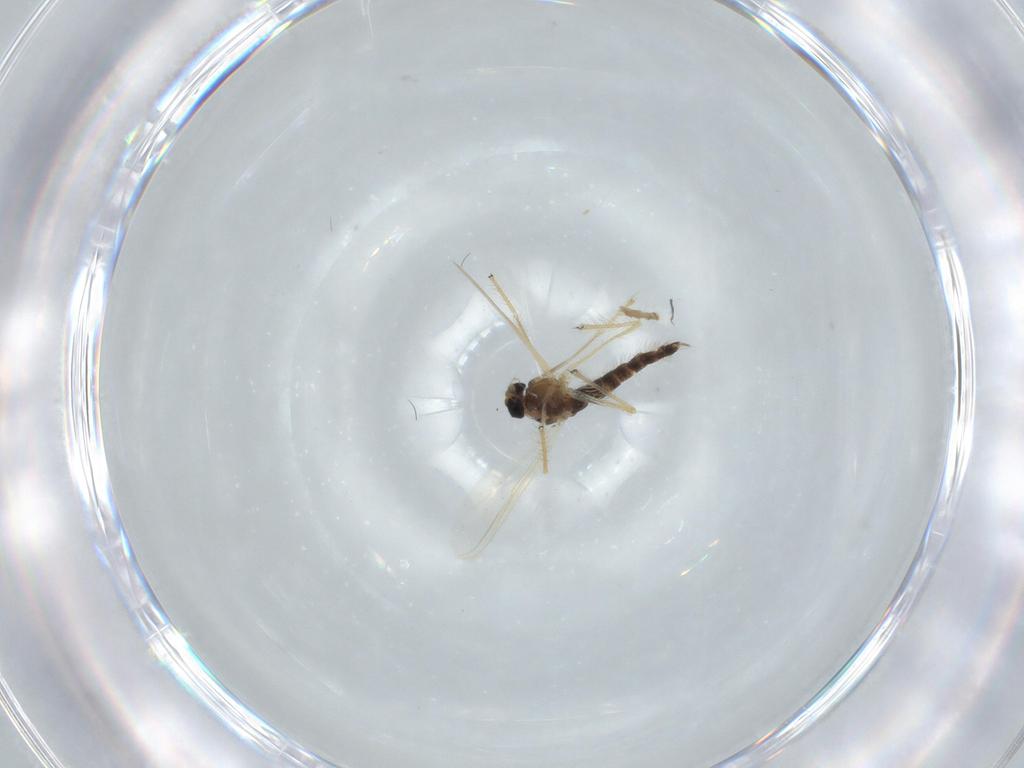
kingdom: Animalia
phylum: Arthropoda
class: Insecta
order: Diptera
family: Chironomidae
